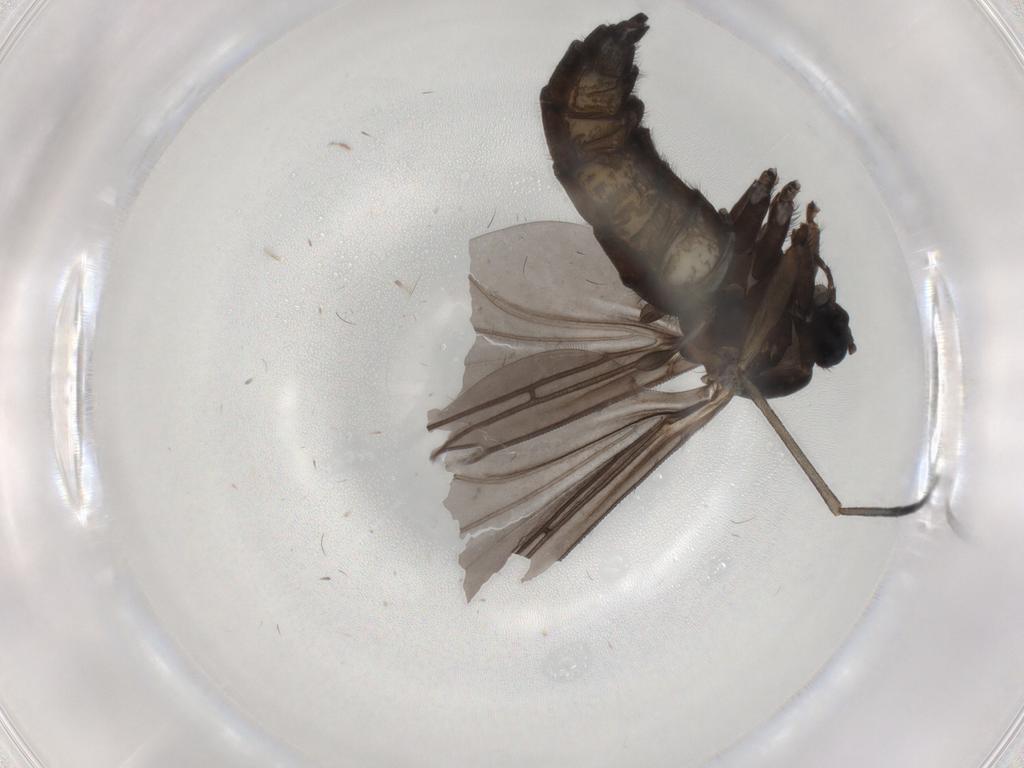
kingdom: Animalia
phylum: Arthropoda
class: Insecta
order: Diptera
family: Sciaridae
